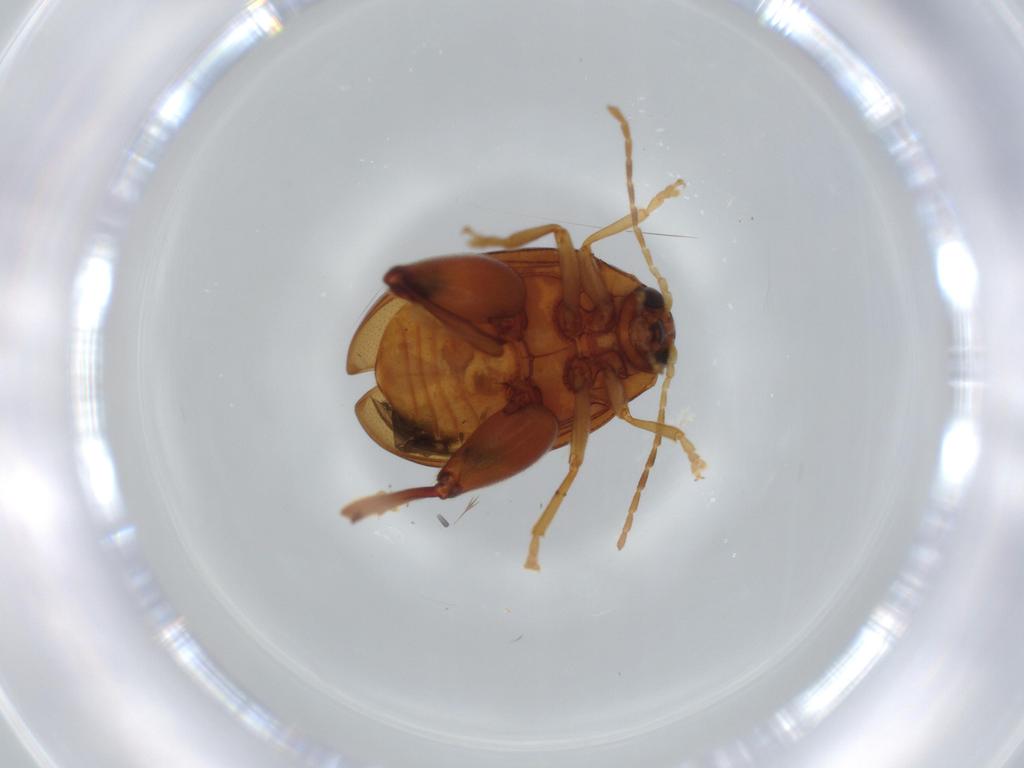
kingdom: Animalia
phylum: Arthropoda
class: Insecta
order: Coleoptera
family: Chrysomelidae
